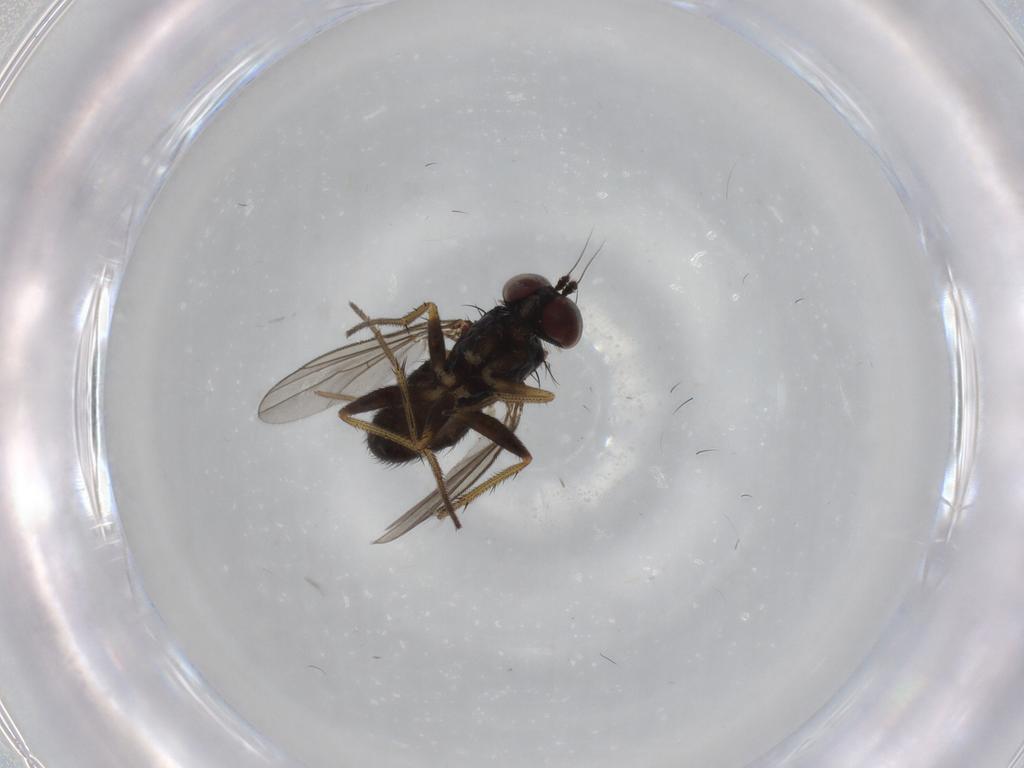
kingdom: Animalia
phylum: Arthropoda
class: Insecta
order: Diptera
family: Chironomidae
